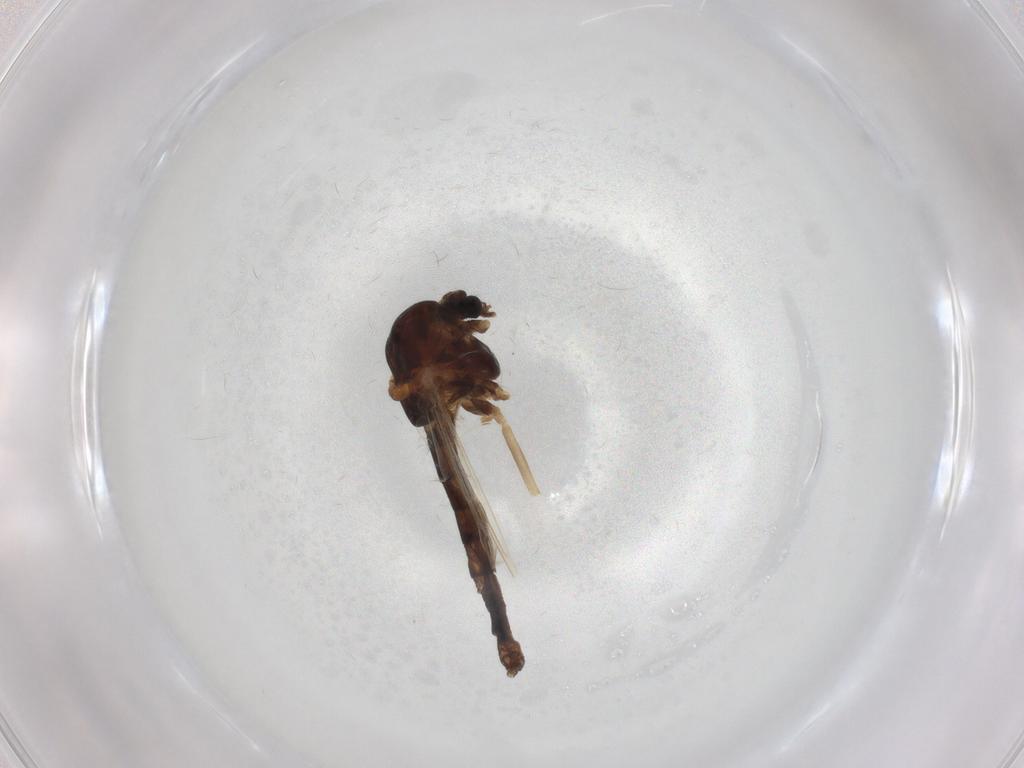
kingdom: Animalia
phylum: Arthropoda
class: Insecta
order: Diptera
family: Chironomidae
